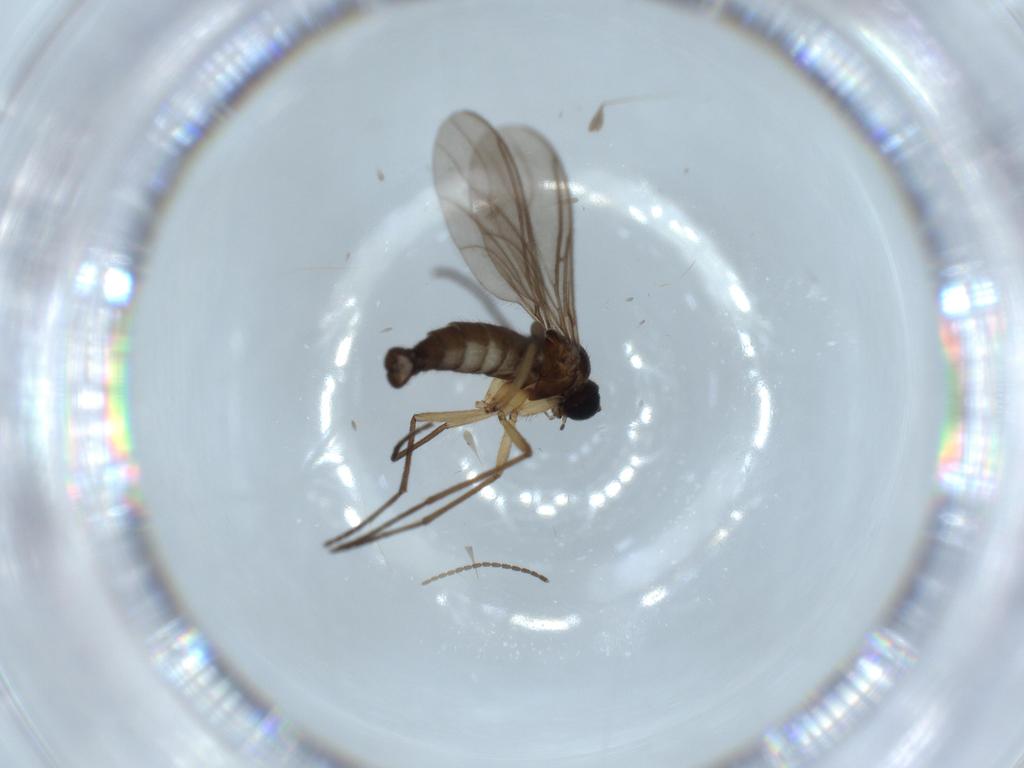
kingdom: Animalia
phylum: Arthropoda
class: Insecta
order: Diptera
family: Sciaridae
